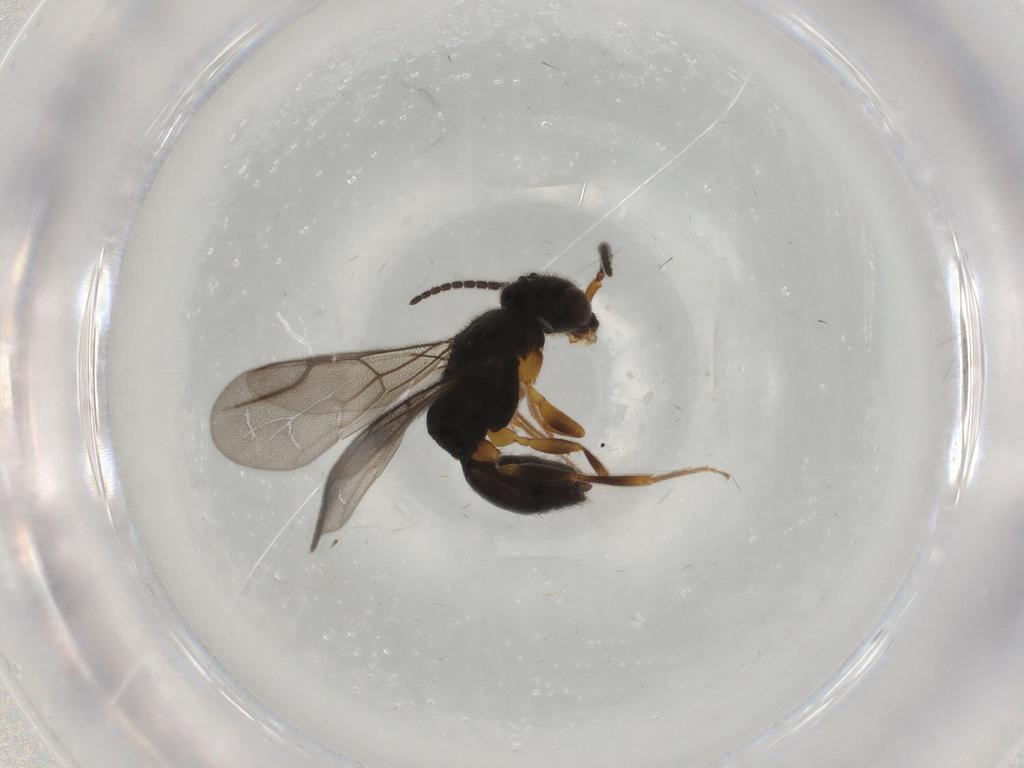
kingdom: Animalia
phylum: Arthropoda
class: Insecta
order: Hymenoptera
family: Bethylidae
